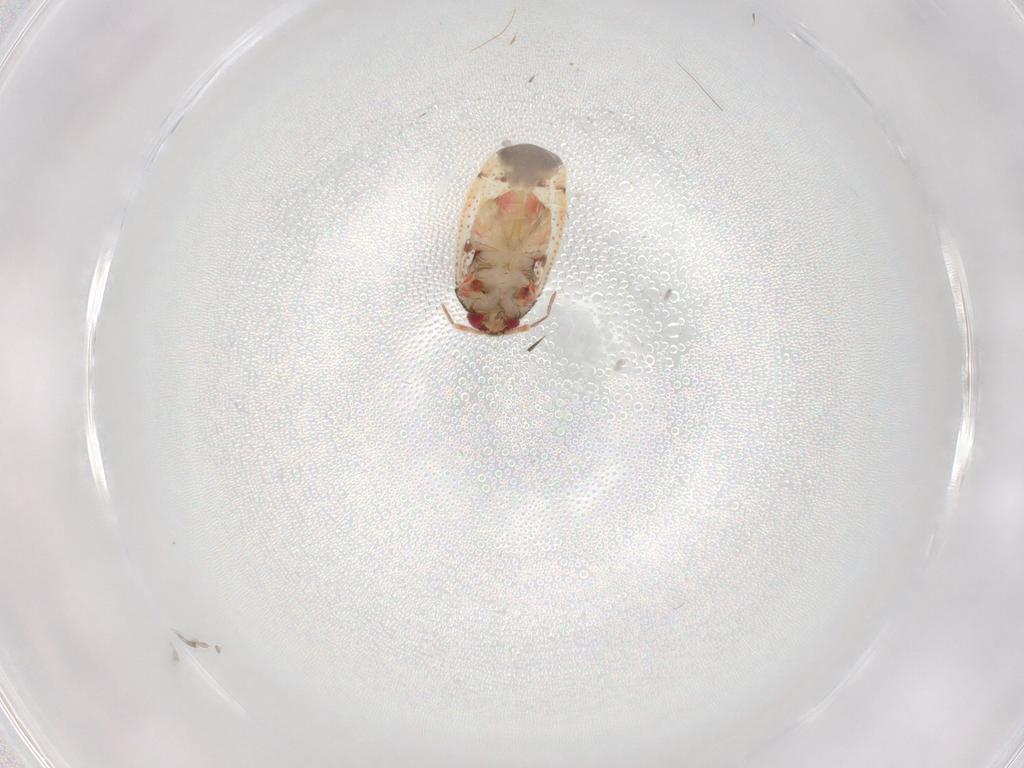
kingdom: Animalia
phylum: Arthropoda
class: Insecta
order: Hemiptera
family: Miridae
